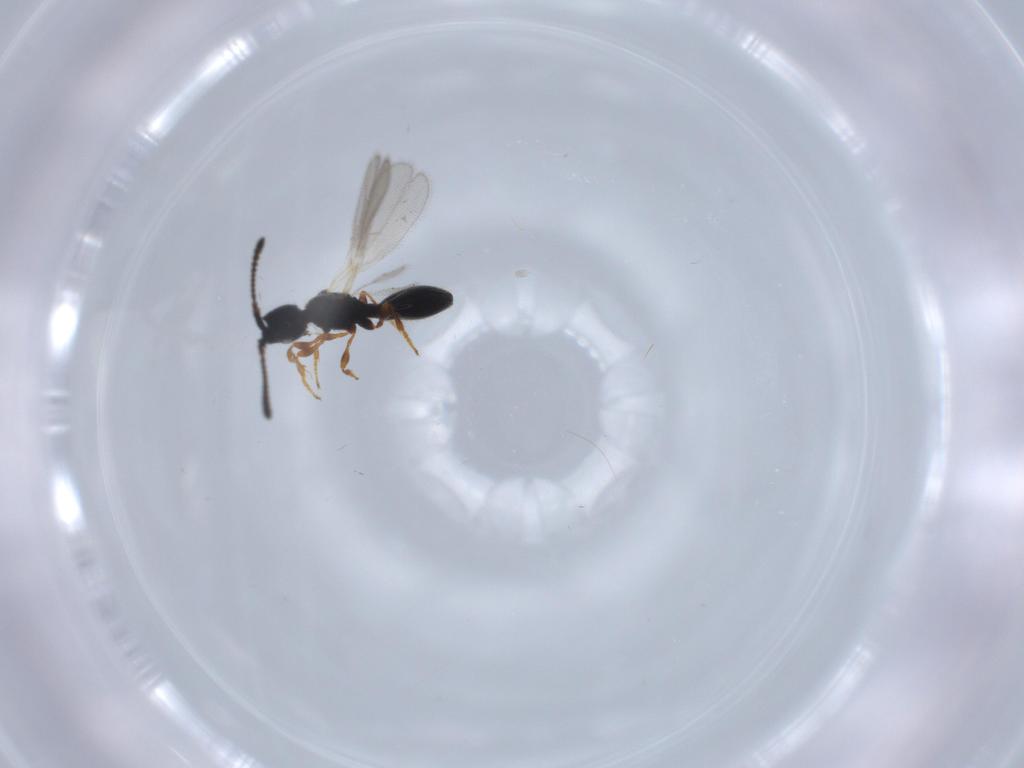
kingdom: Animalia
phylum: Arthropoda
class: Insecta
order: Hymenoptera
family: Diapriidae
